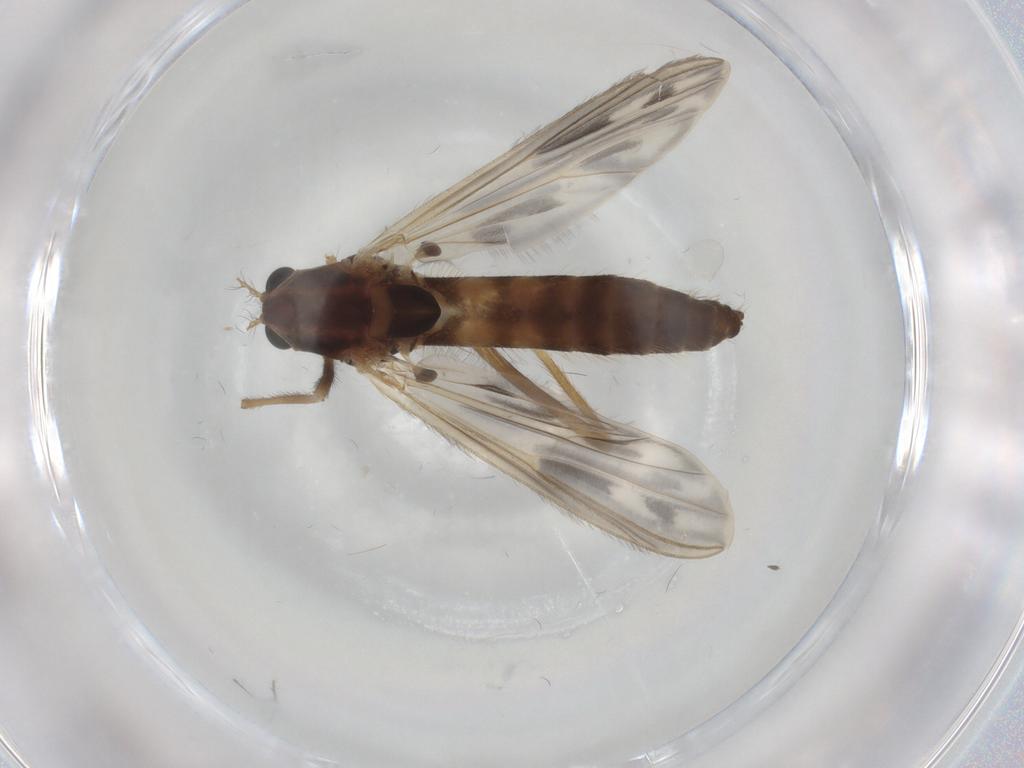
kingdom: Animalia
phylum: Arthropoda
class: Insecta
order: Diptera
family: Chironomidae
